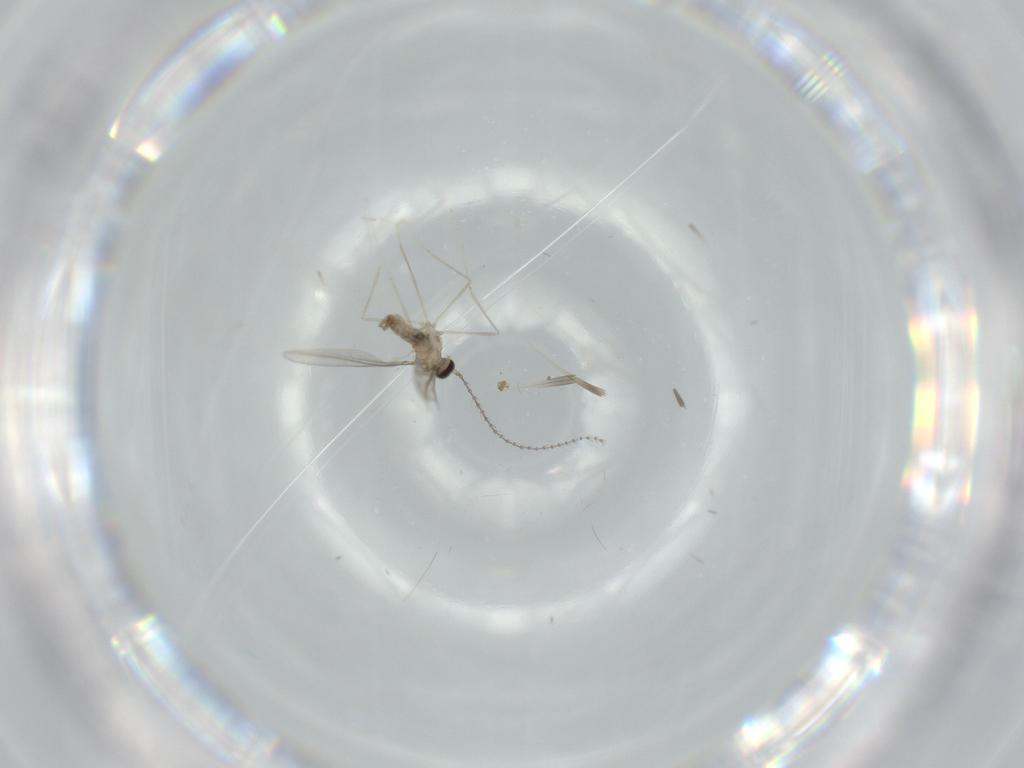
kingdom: Animalia
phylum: Arthropoda
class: Insecta
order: Diptera
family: Cecidomyiidae
